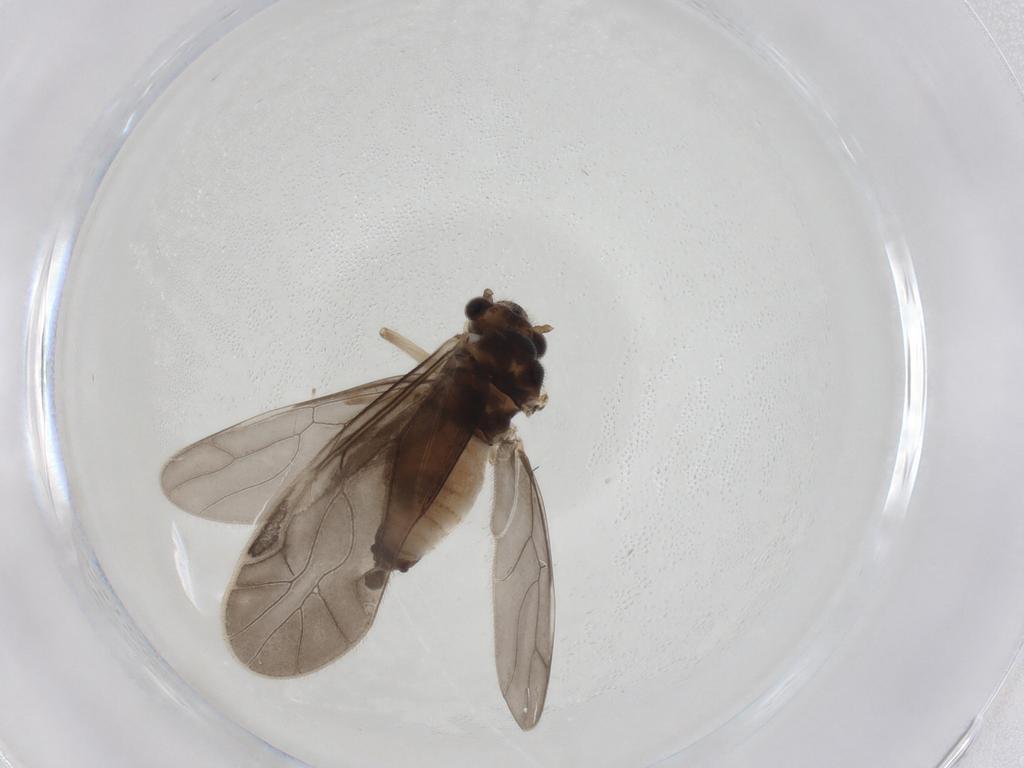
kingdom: Animalia
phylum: Arthropoda
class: Insecta
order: Psocodea
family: Caeciliusidae
